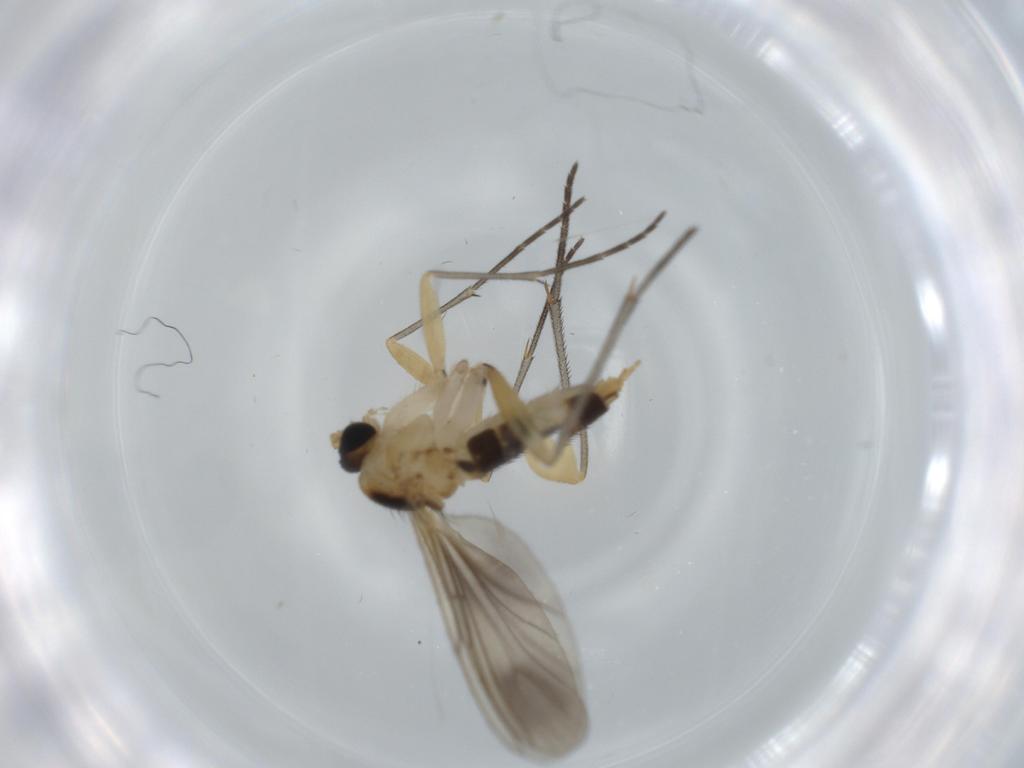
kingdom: Animalia
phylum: Arthropoda
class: Insecta
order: Diptera
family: Sciaridae
